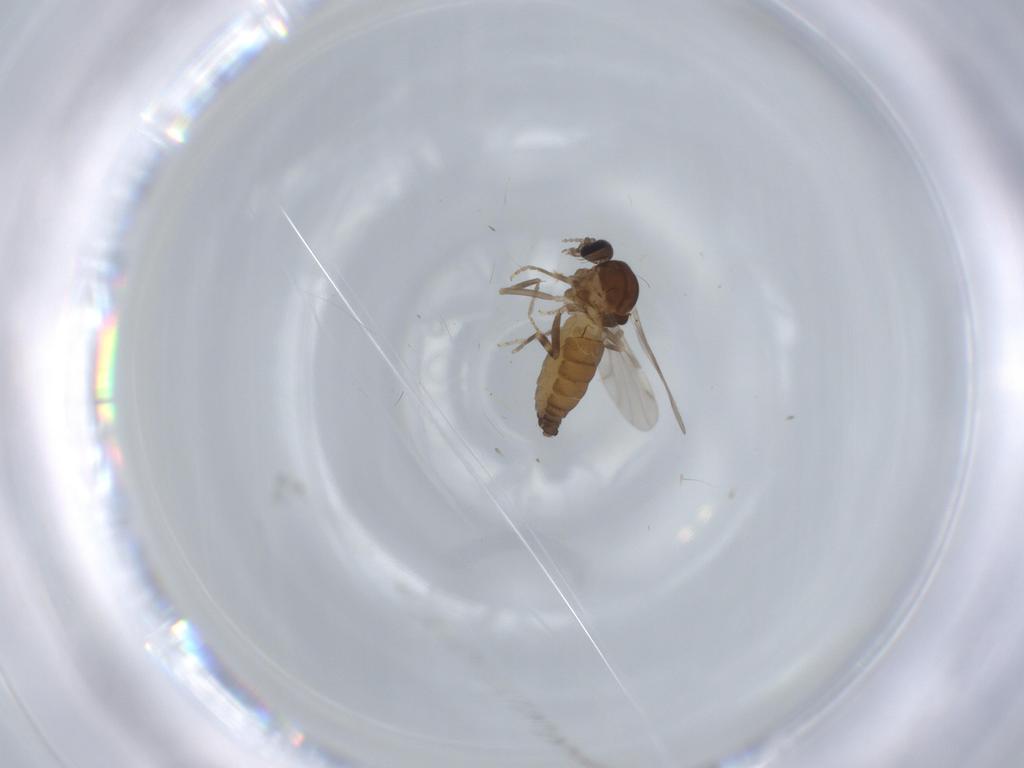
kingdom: Animalia
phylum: Arthropoda
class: Insecta
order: Diptera
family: Ceratopogonidae
